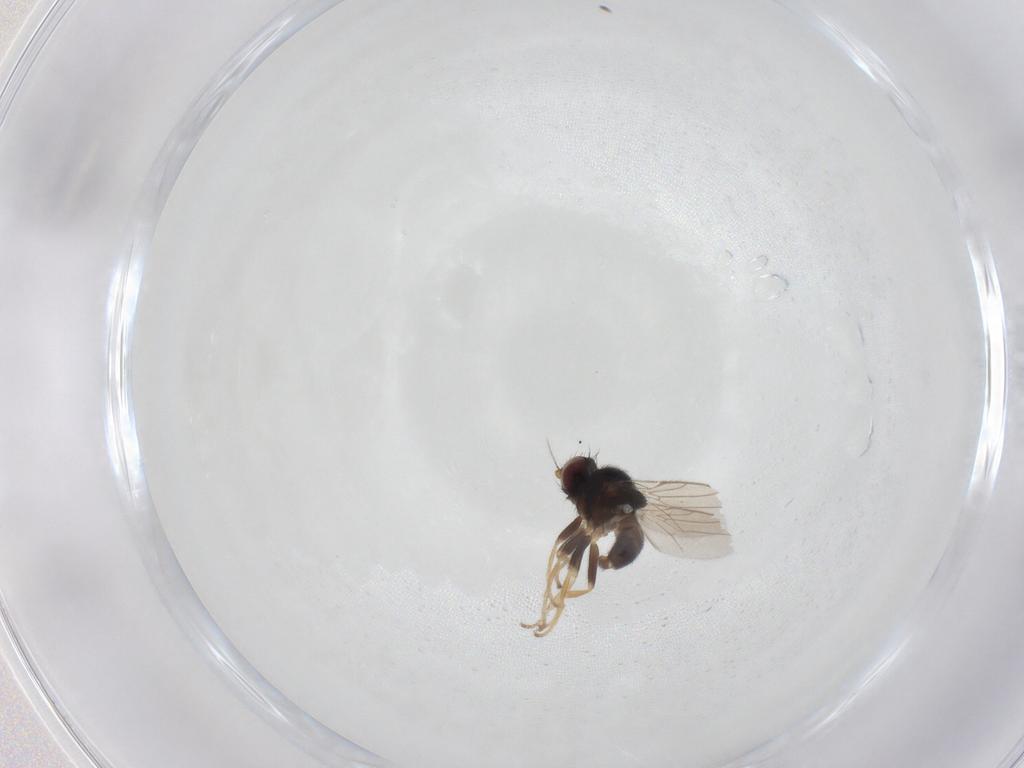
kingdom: Animalia
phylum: Arthropoda
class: Insecta
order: Diptera
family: Chloropidae
